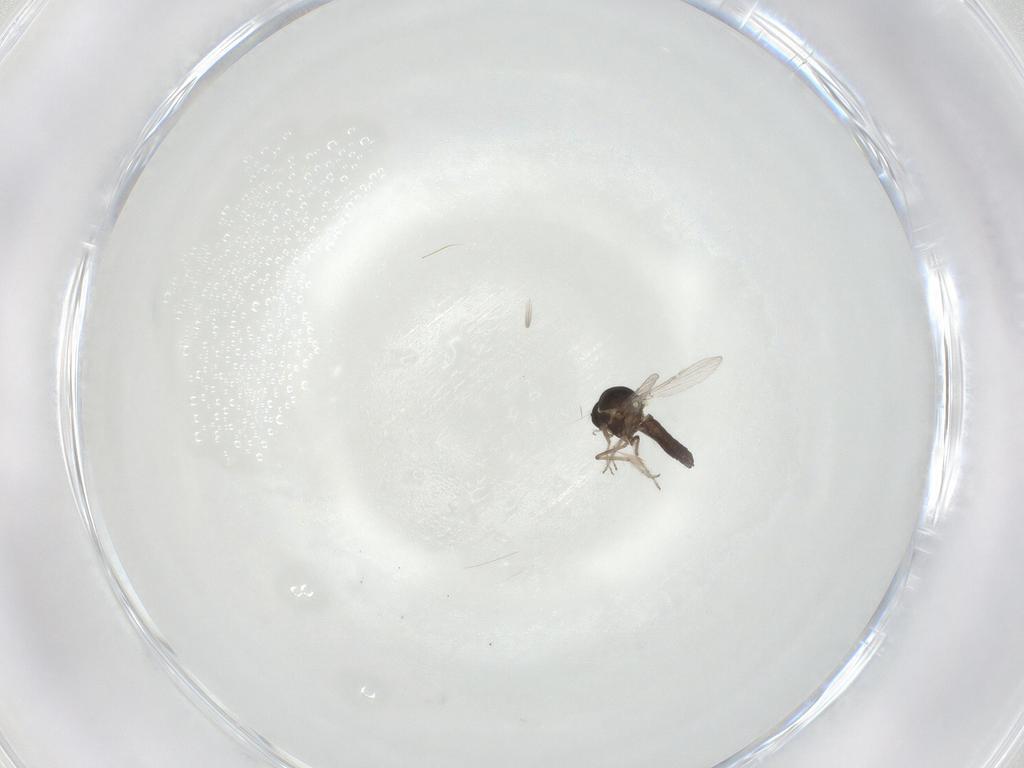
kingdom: Animalia
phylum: Arthropoda
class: Insecta
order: Diptera
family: Ceratopogonidae
